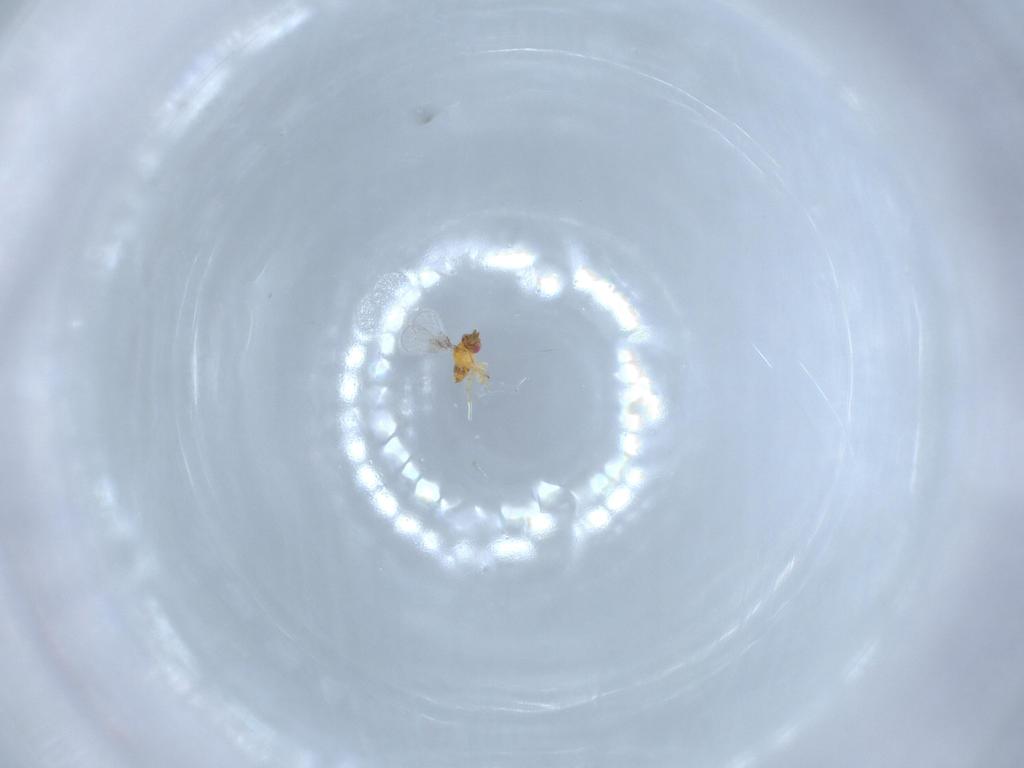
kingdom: Animalia
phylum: Arthropoda
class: Insecta
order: Hymenoptera
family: Trichogrammatidae
